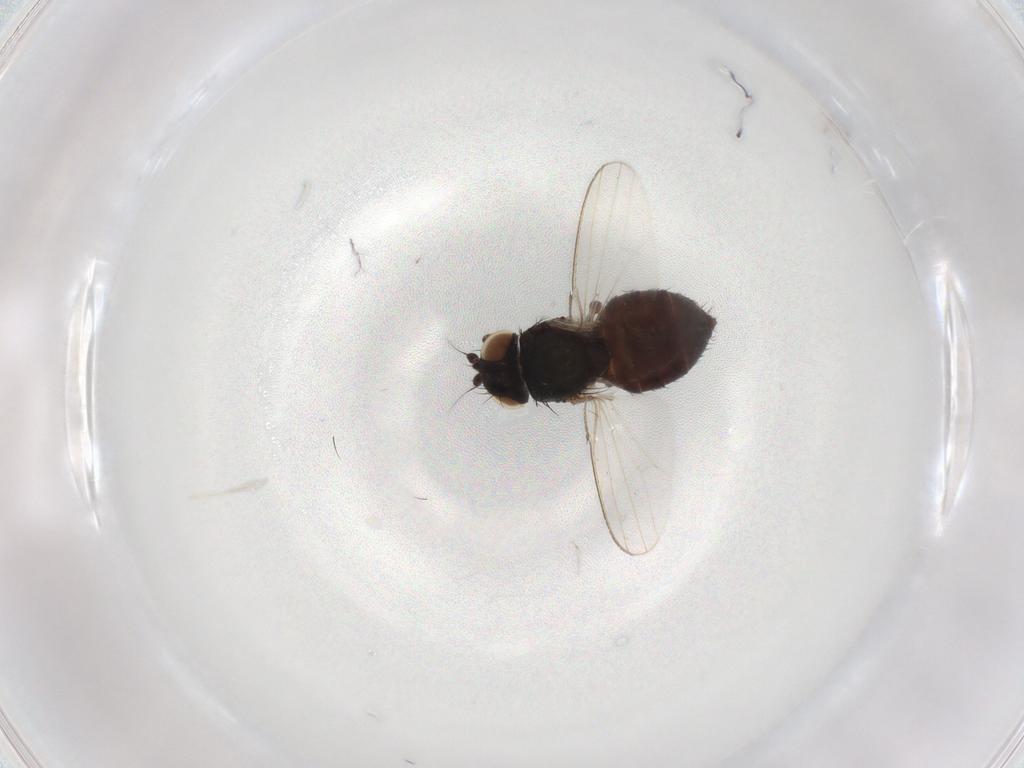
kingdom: Animalia
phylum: Arthropoda
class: Insecta
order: Diptera
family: Milichiidae
